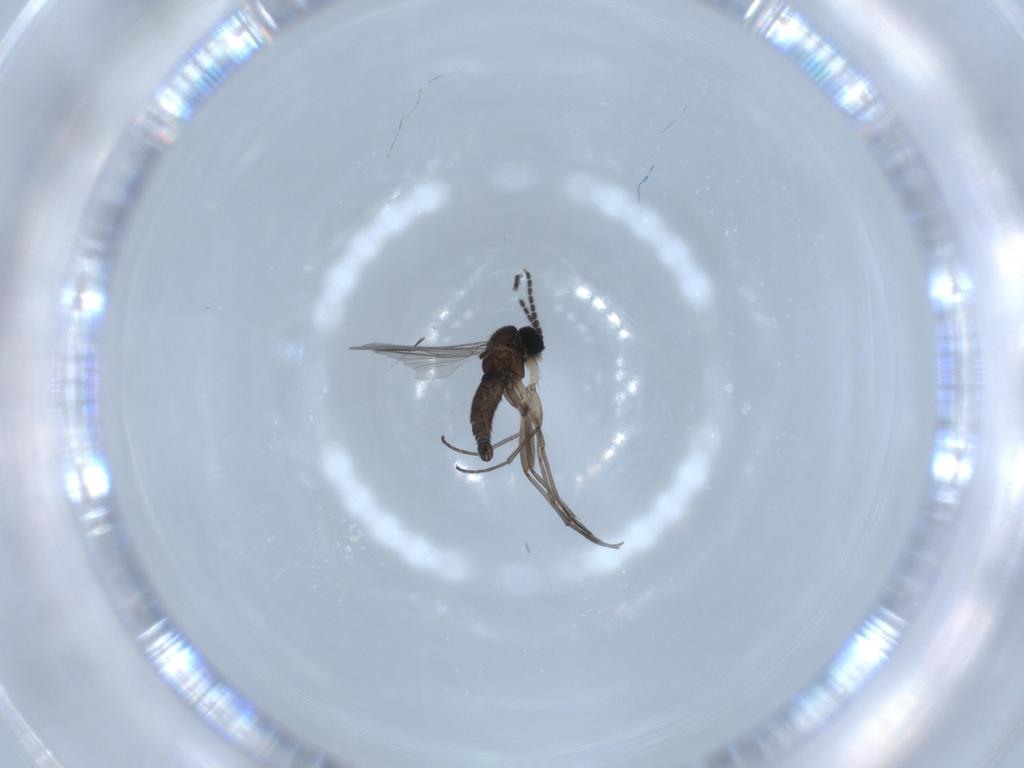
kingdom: Animalia
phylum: Arthropoda
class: Insecta
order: Diptera
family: Sciaridae
